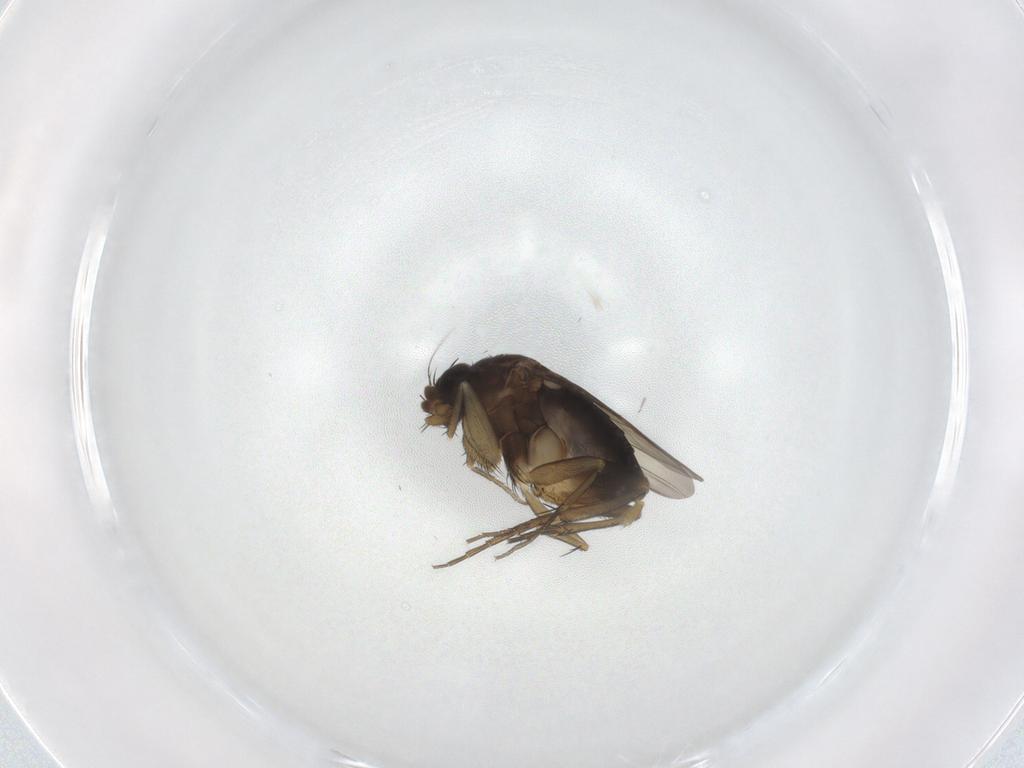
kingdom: Animalia
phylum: Arthropoda
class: Insecta
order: Diptera
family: Phoridae
